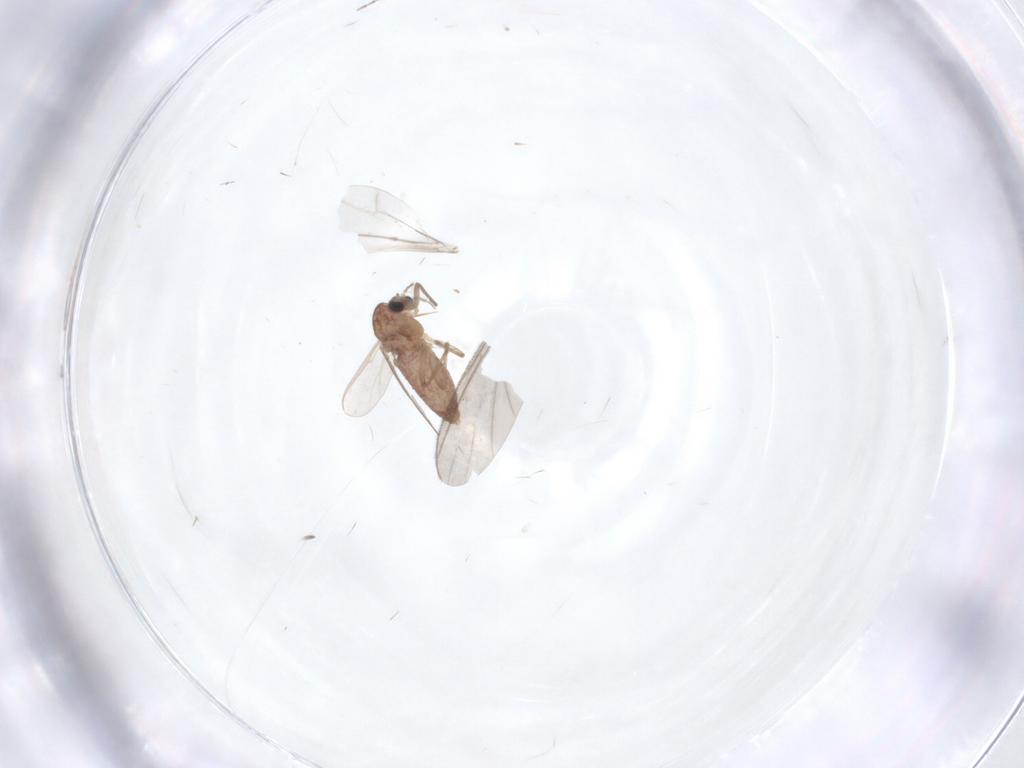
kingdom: Animalia
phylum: Arthropoda
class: Insecta
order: Diptera
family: Chironomidae
